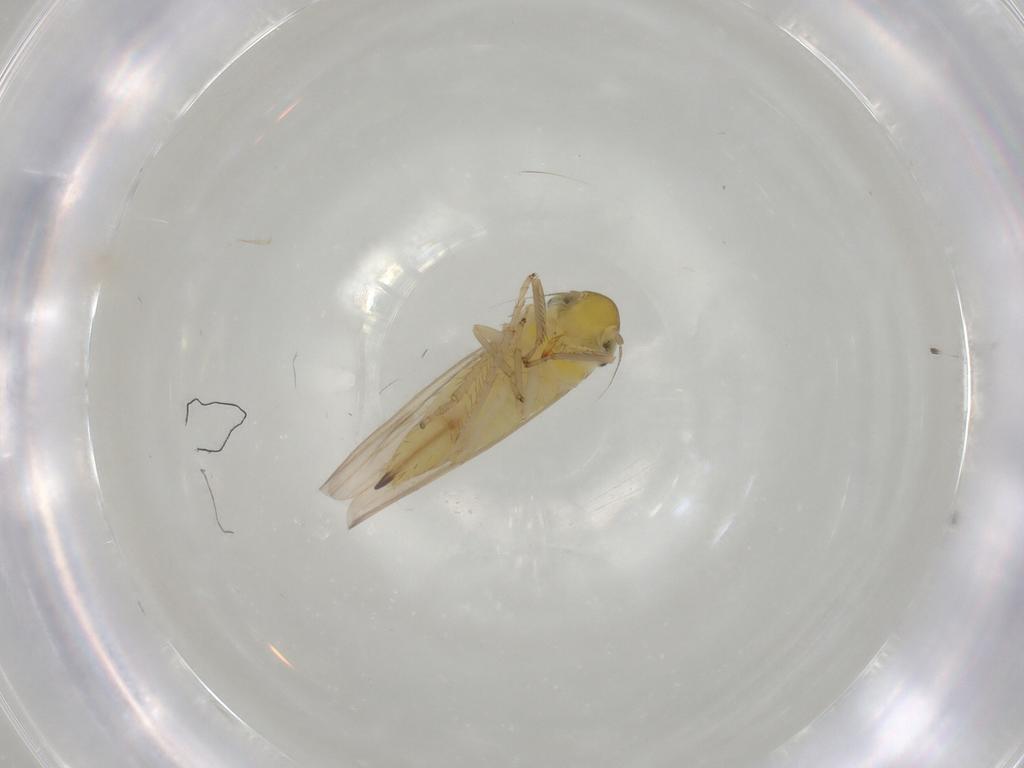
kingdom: Animalia
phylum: Arthropoda
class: Insecta
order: Hemiptera
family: Cicadellidae
